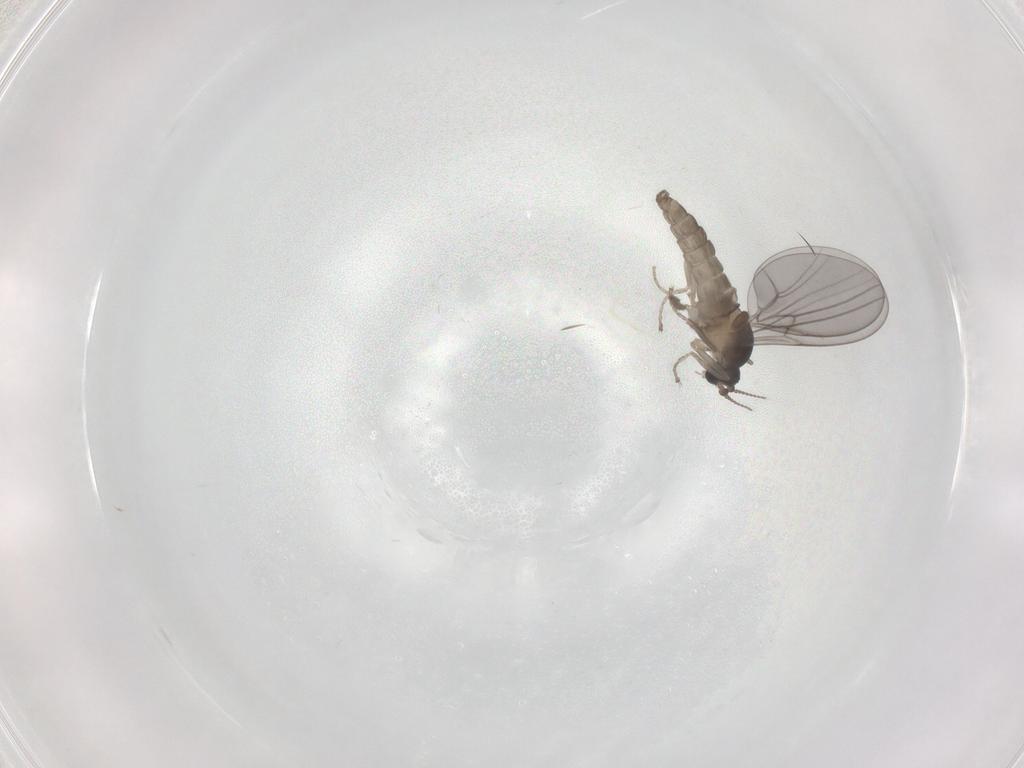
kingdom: Animalia
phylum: Arthropoda
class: Insecta
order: Diptera
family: Cecidomyiidae
